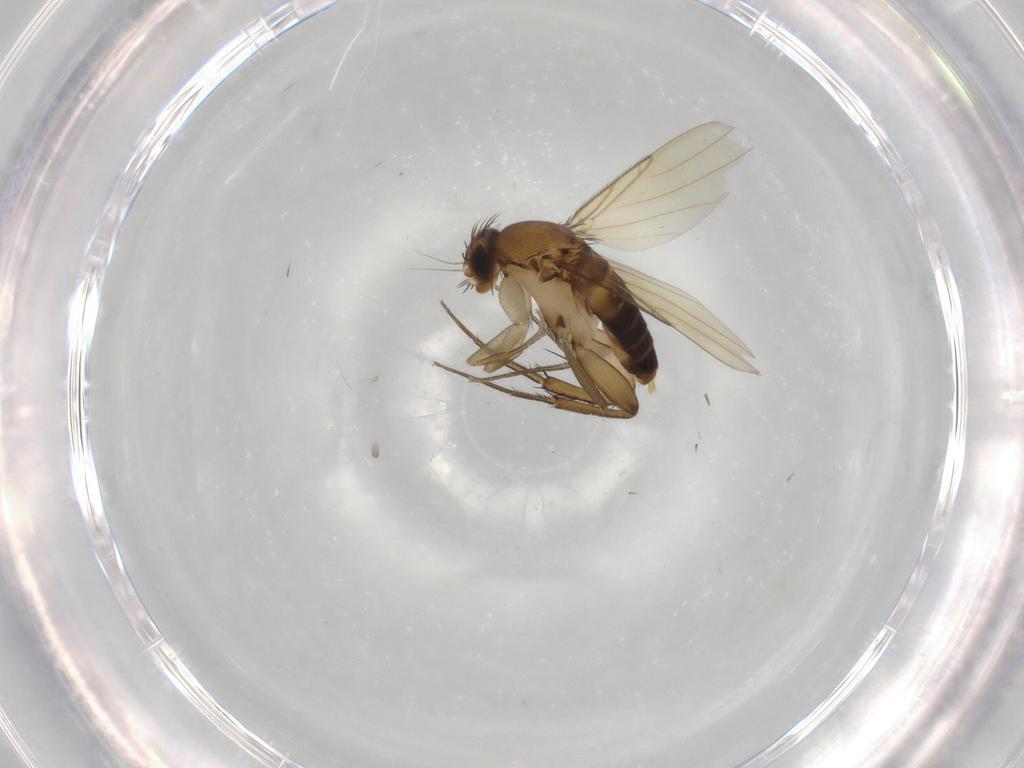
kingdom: Animalia
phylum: Arthropoda
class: Insecta
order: Diptera
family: Phoridae
